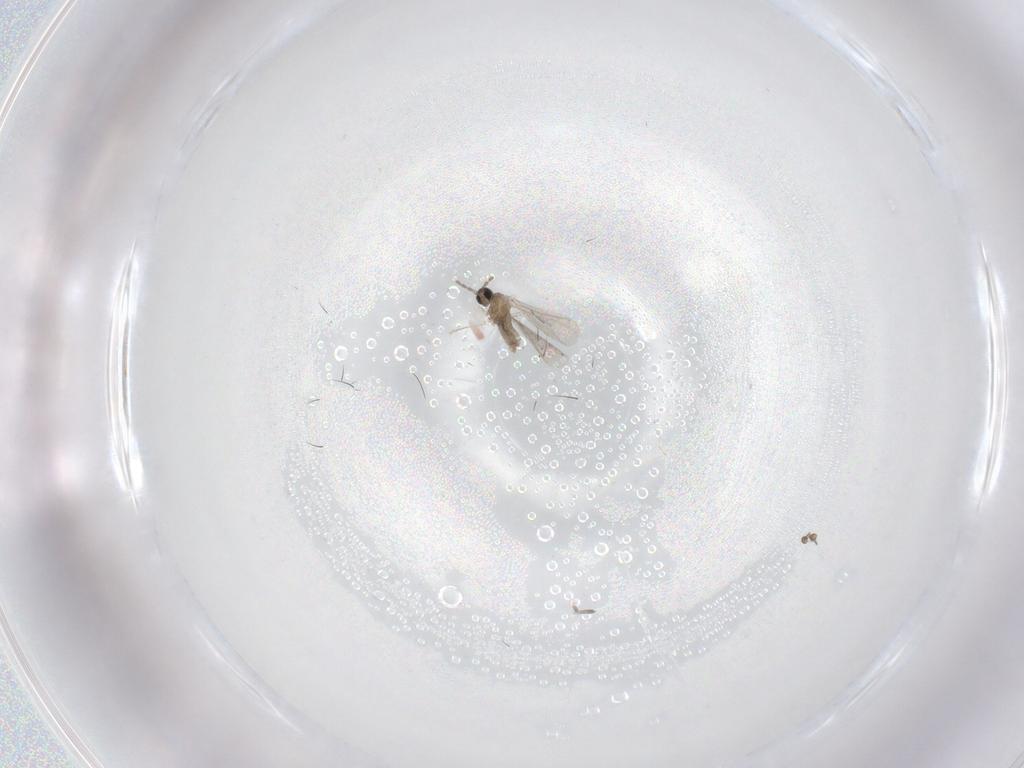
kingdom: Animalia
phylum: Arthropoda
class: Insecta
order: Diptera
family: Cecidomyiidae
